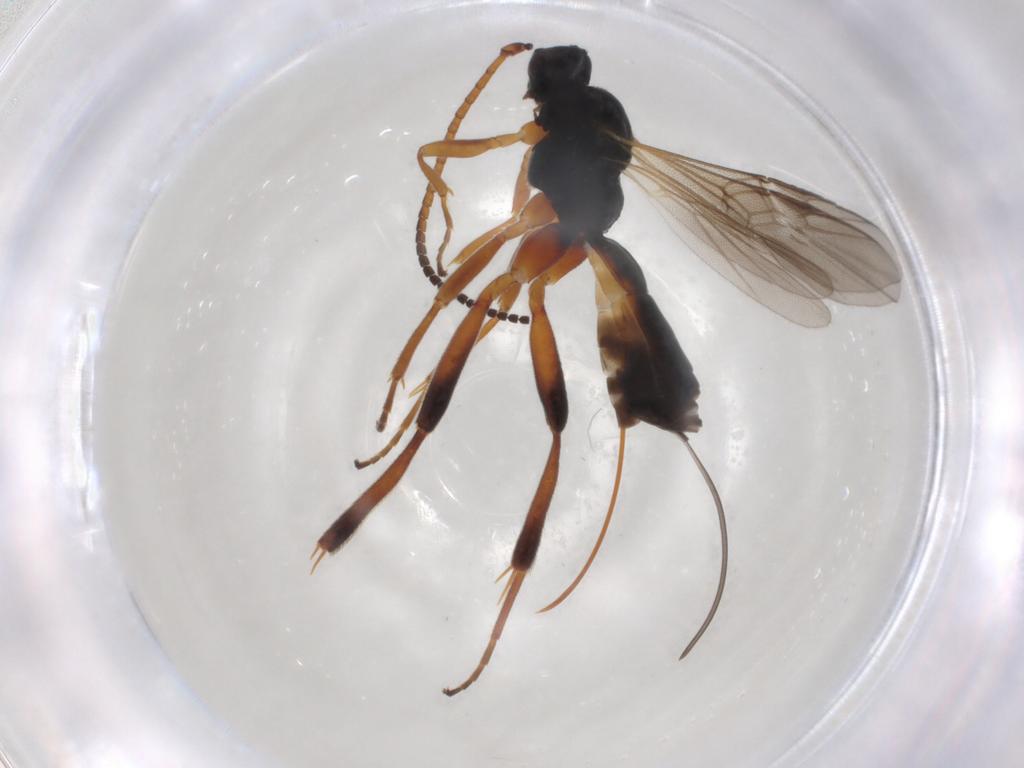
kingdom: Animalia
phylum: Arthropoda
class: Insecta
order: Hymenoptera
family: Braconidae
